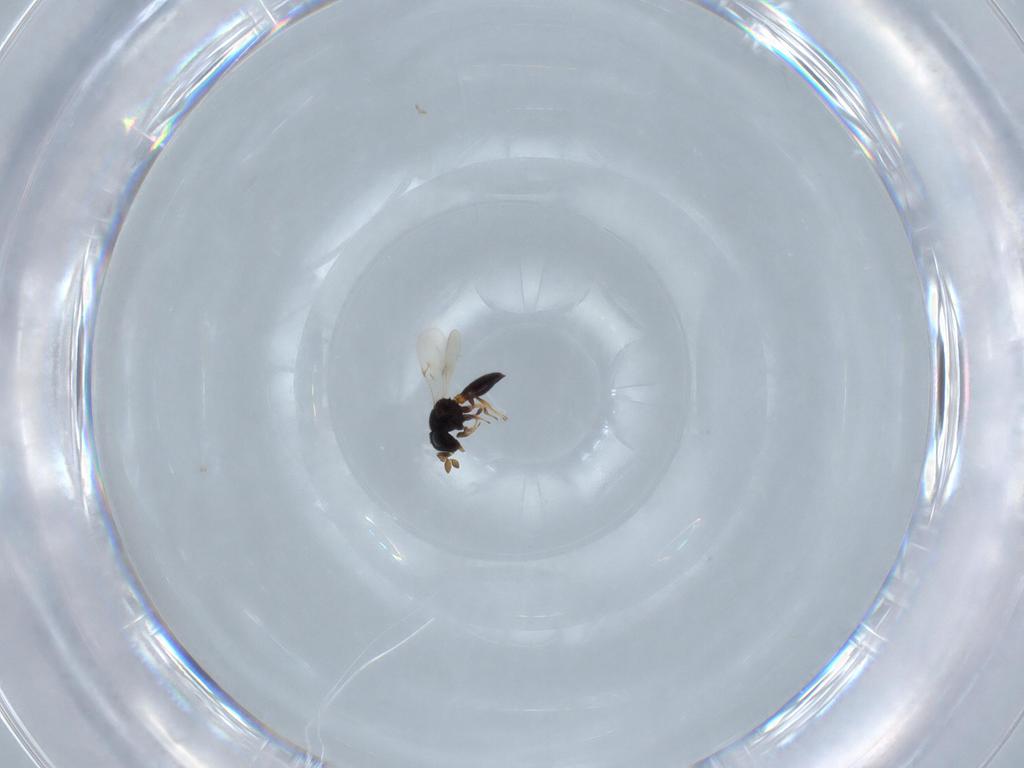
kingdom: Animalia
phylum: Arthropoda
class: Insecta
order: Hymenoptera
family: Scelionidae
